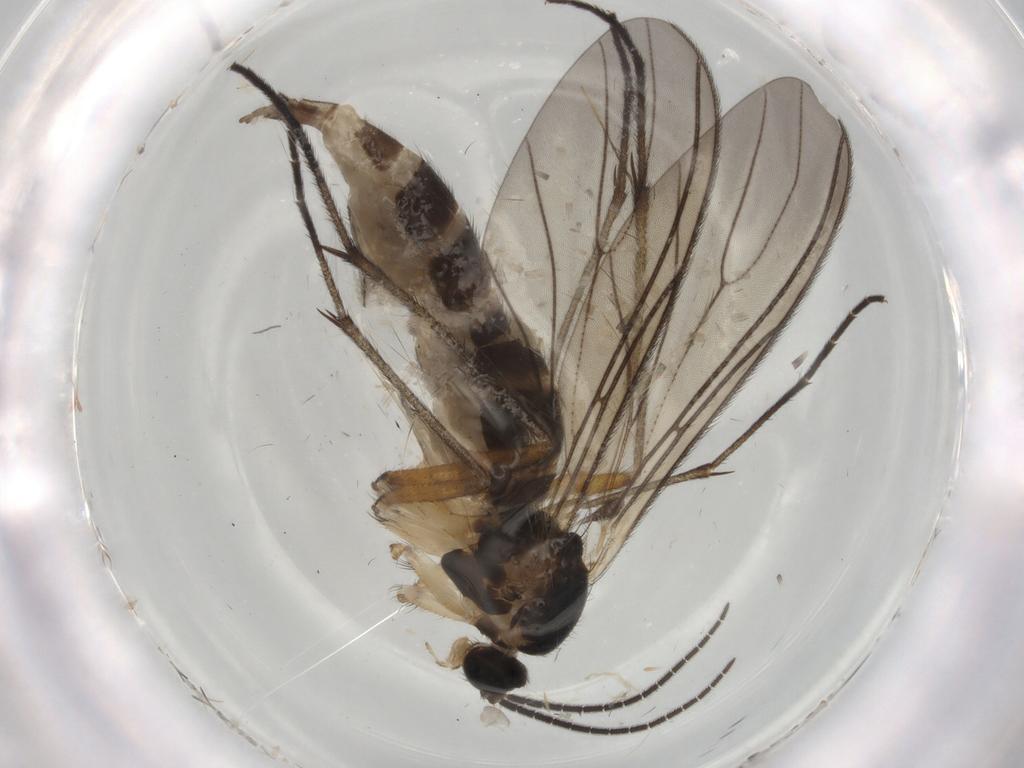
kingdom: Animalia
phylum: Arthropoda
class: Insecta
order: Diptera
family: Sciaridae
